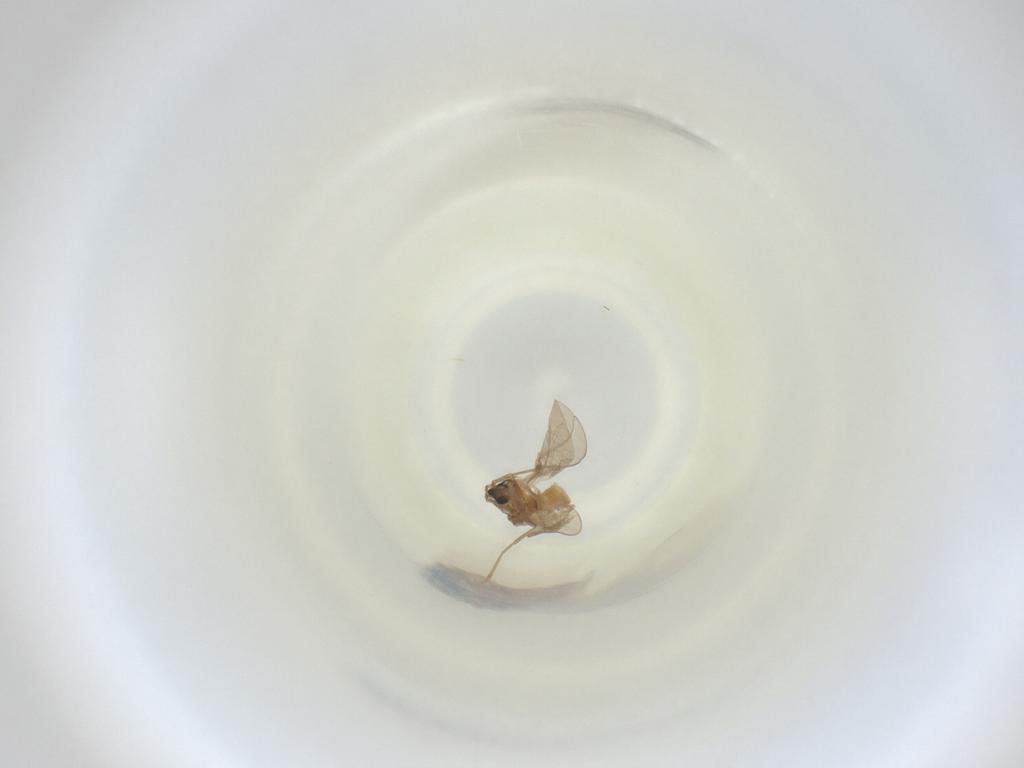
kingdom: Animalia
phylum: Arthropoda
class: Insecta
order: Diptera
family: Cecidomyiidae
